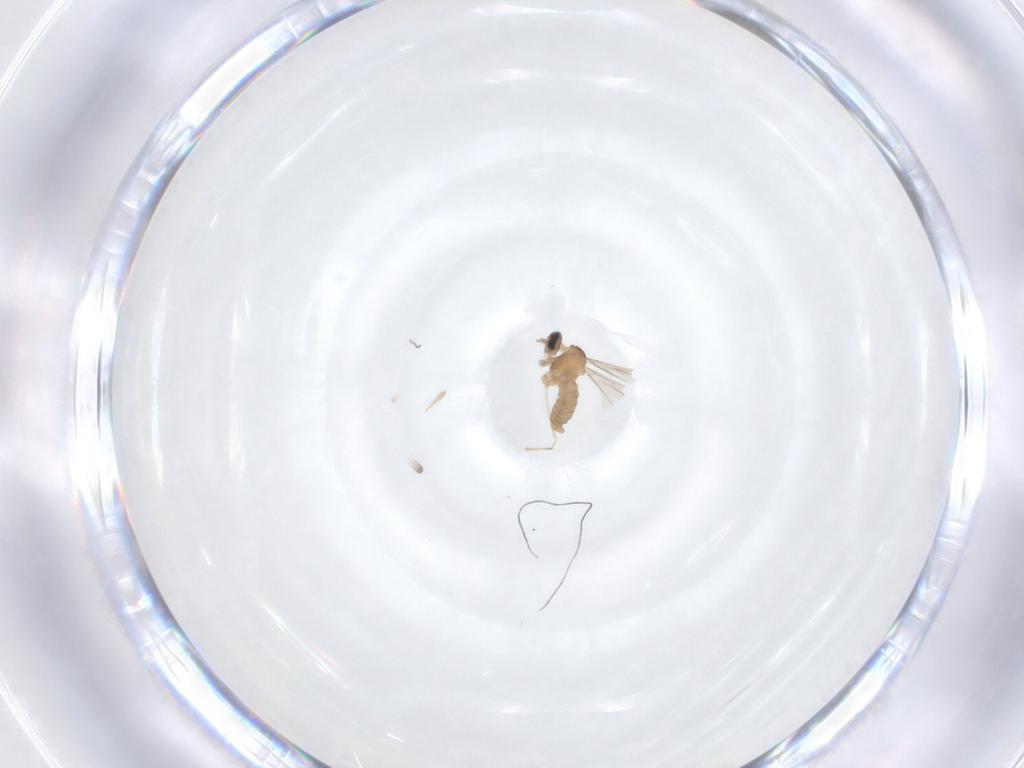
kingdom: Animalia
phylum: Arthropoda
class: Insecta
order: Diptera
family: Cecidomyiidae
